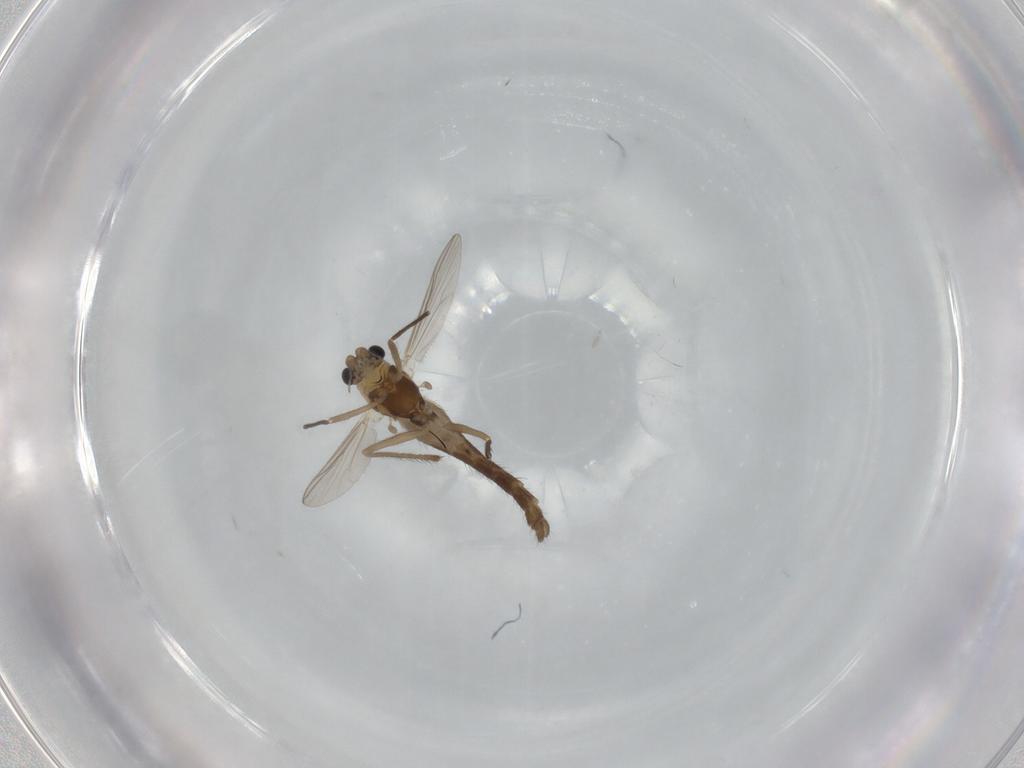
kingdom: Animalia
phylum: Arthropoda
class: Insecta
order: Diptera
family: Chironomidae
